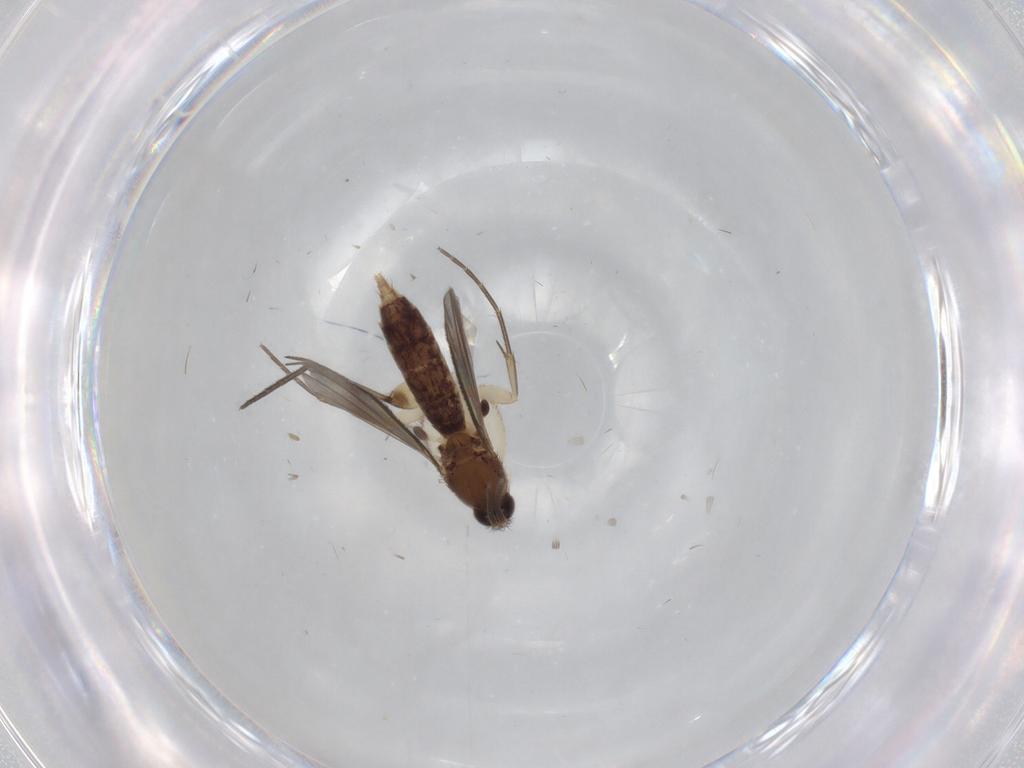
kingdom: Animalia
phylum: Arthropoda
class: Insecta
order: Diptera
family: Mycetophilidae
